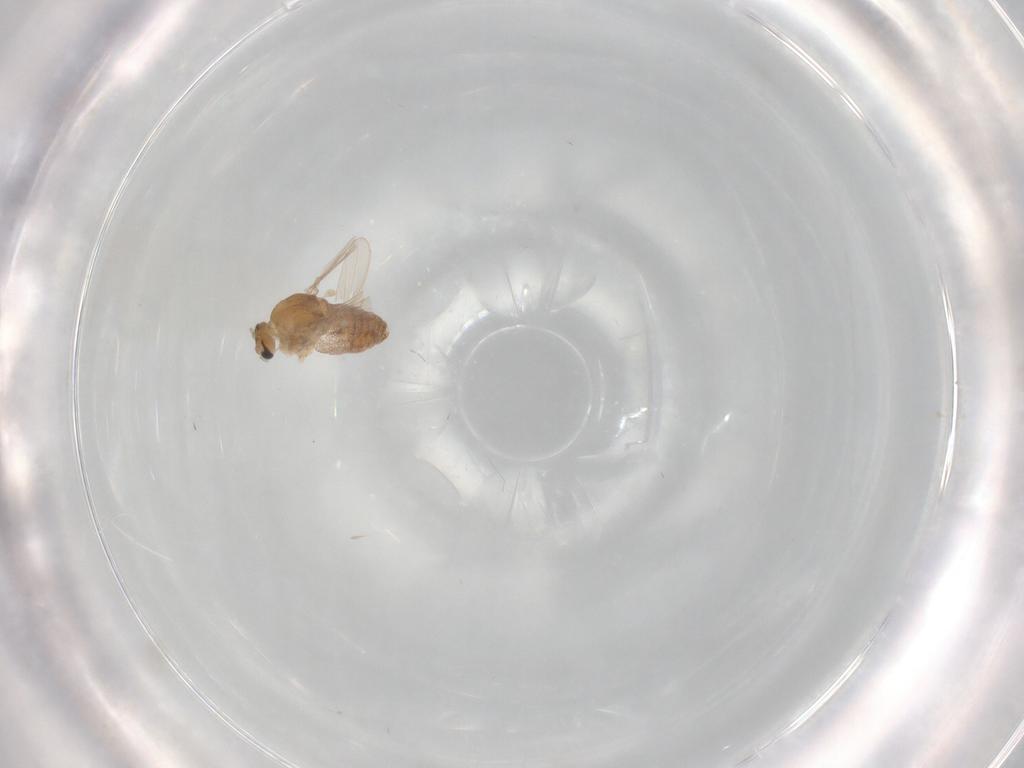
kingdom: Animalia
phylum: Arthropoda
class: Insecta
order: Diptera
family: Chironomidae
